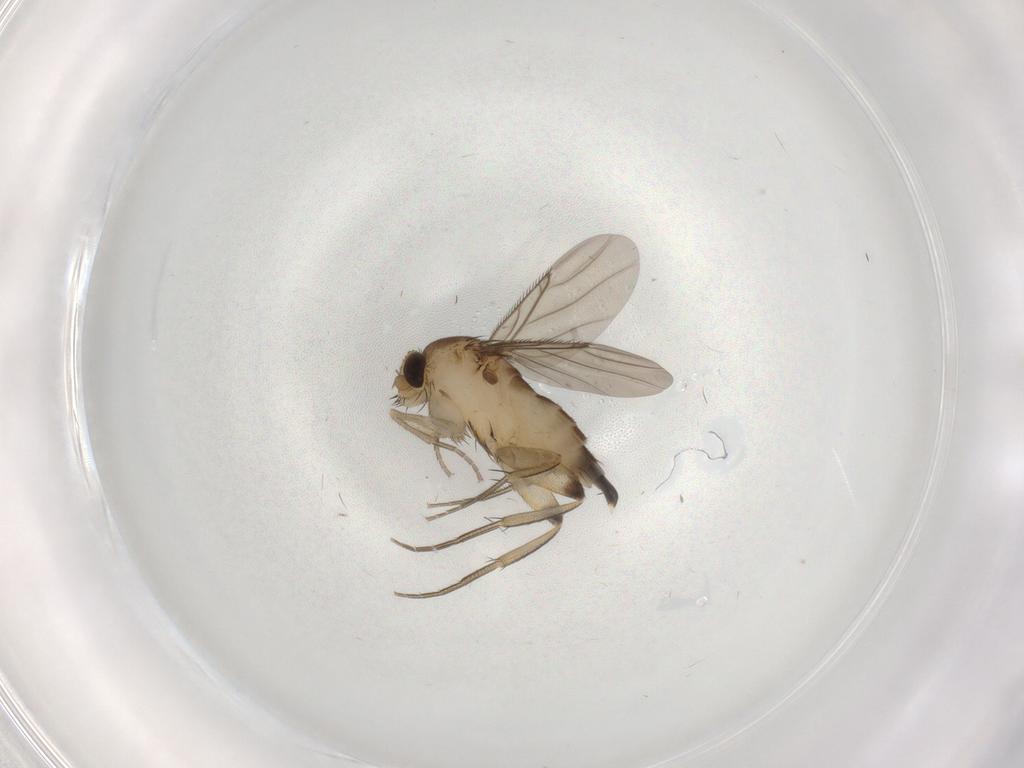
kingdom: Animalia
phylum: Arthropoda
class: Insecta
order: Diptera
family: Phoridae
